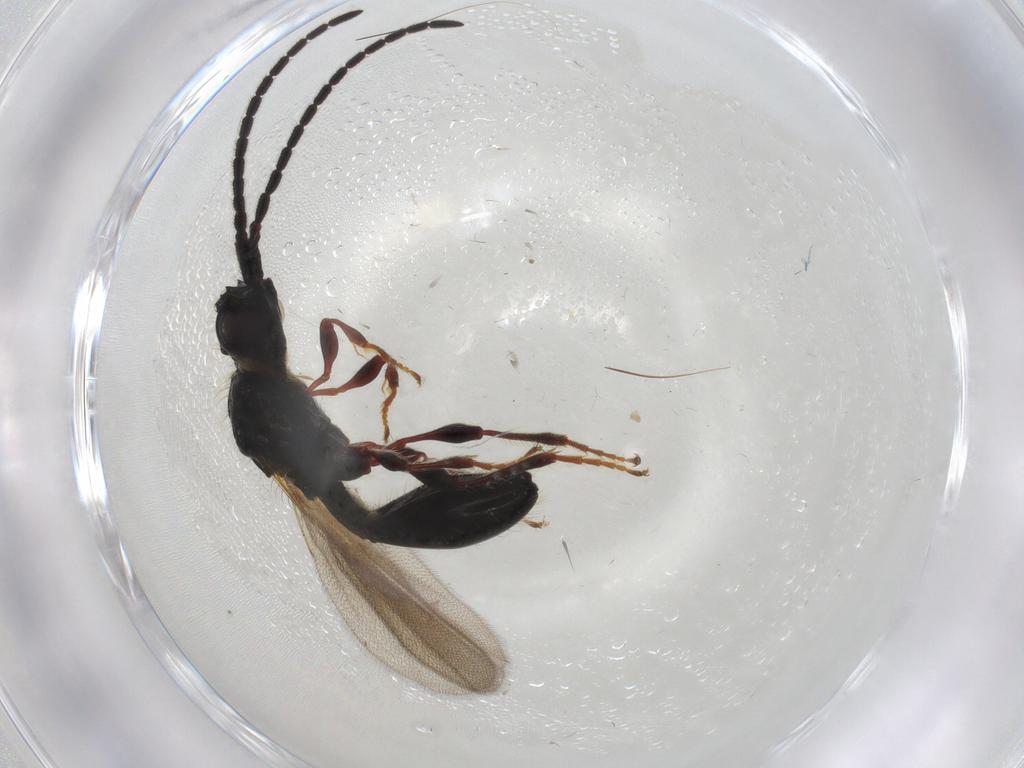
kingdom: Animalia
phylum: Arthropoda
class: Insecta
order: Hymenoptera
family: Diapriidae
